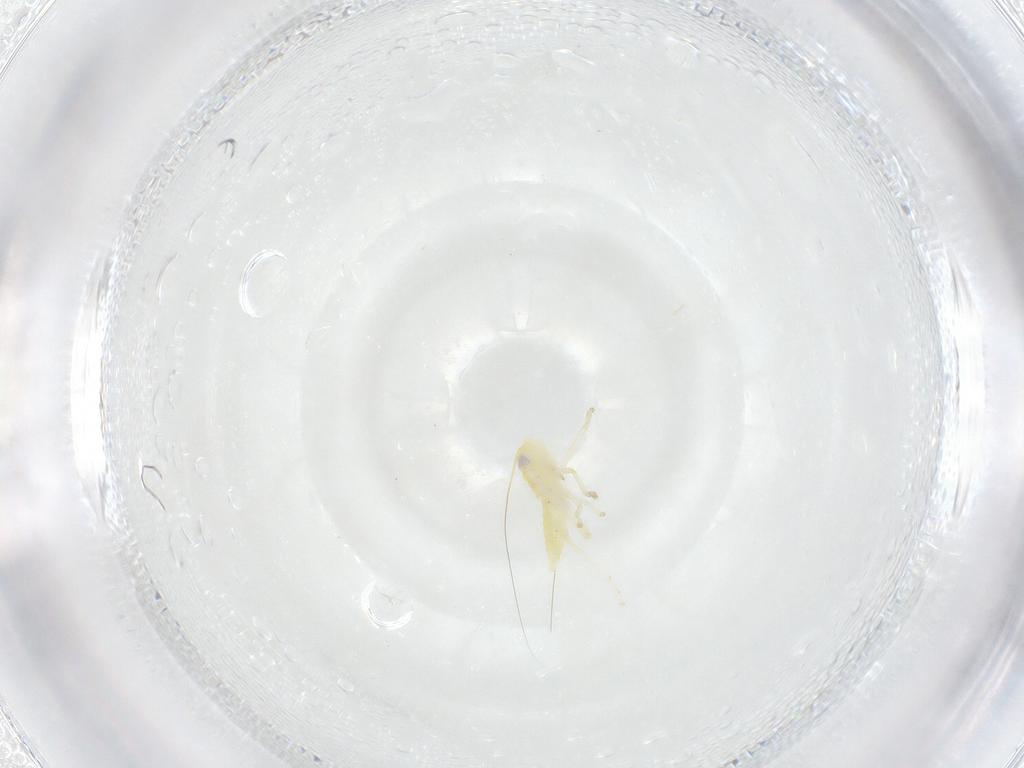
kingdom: Animalia
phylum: Arthropoda
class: Insecta
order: Hemiptera
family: Cicadellidae
